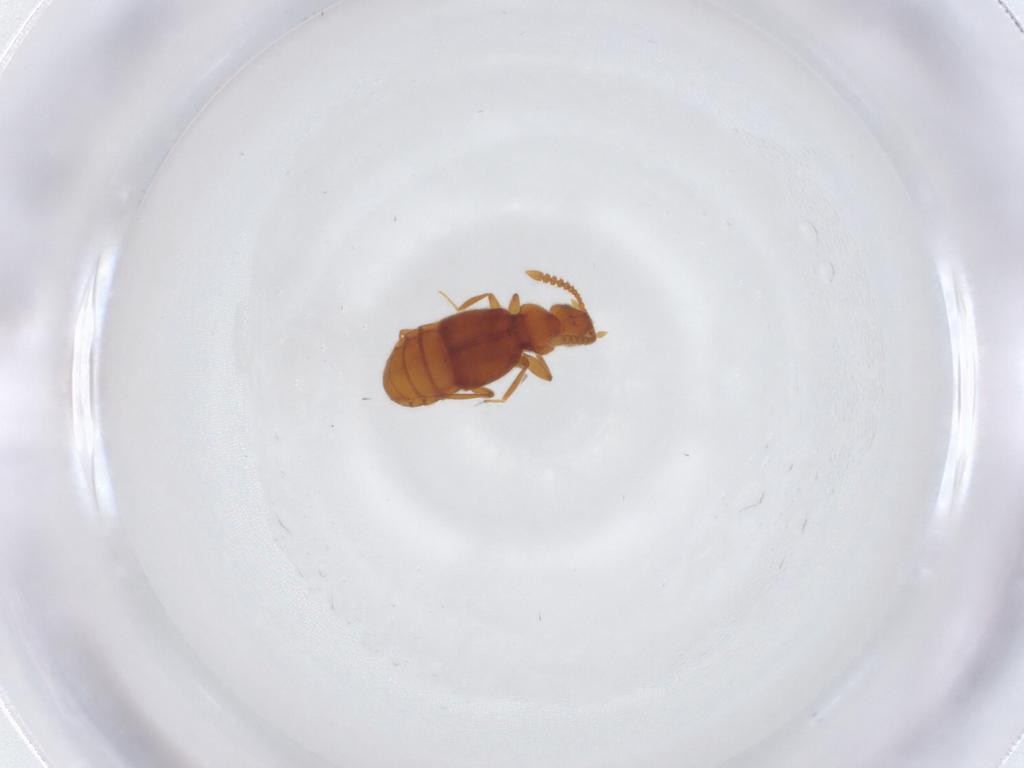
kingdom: Animalia
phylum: Arthropoda
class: Insecta
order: Coleoptera
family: Staphylinidae
